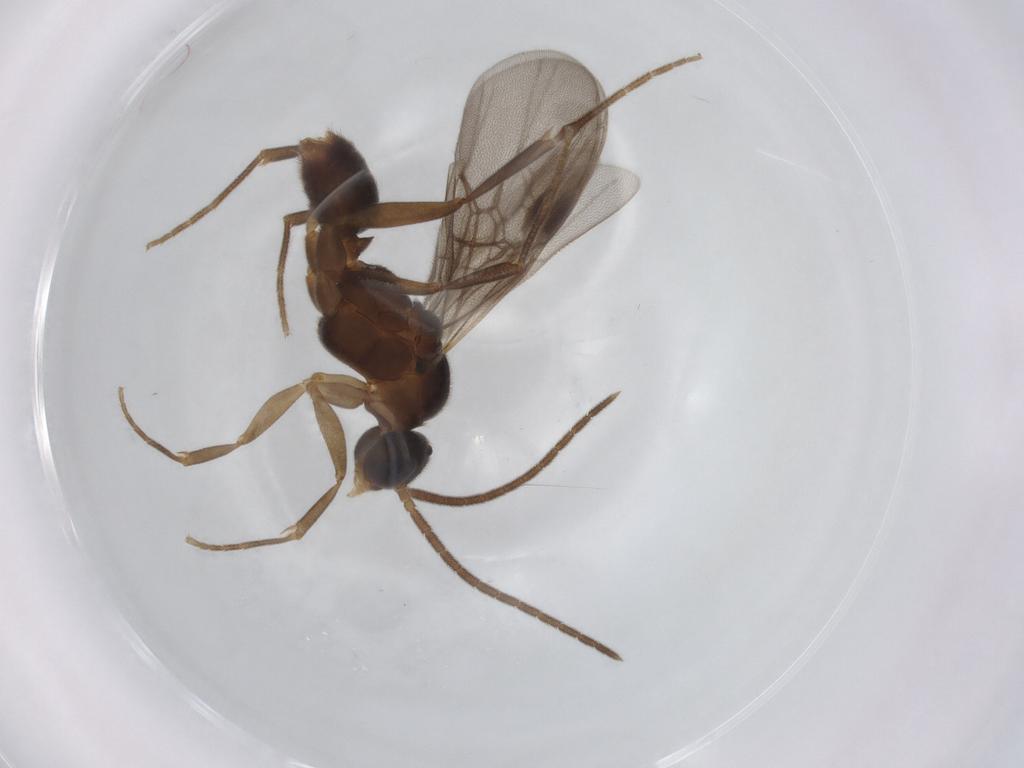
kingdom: Animalia
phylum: Arthropoda
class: Insecta
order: Hymenoptera
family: Formicidae
